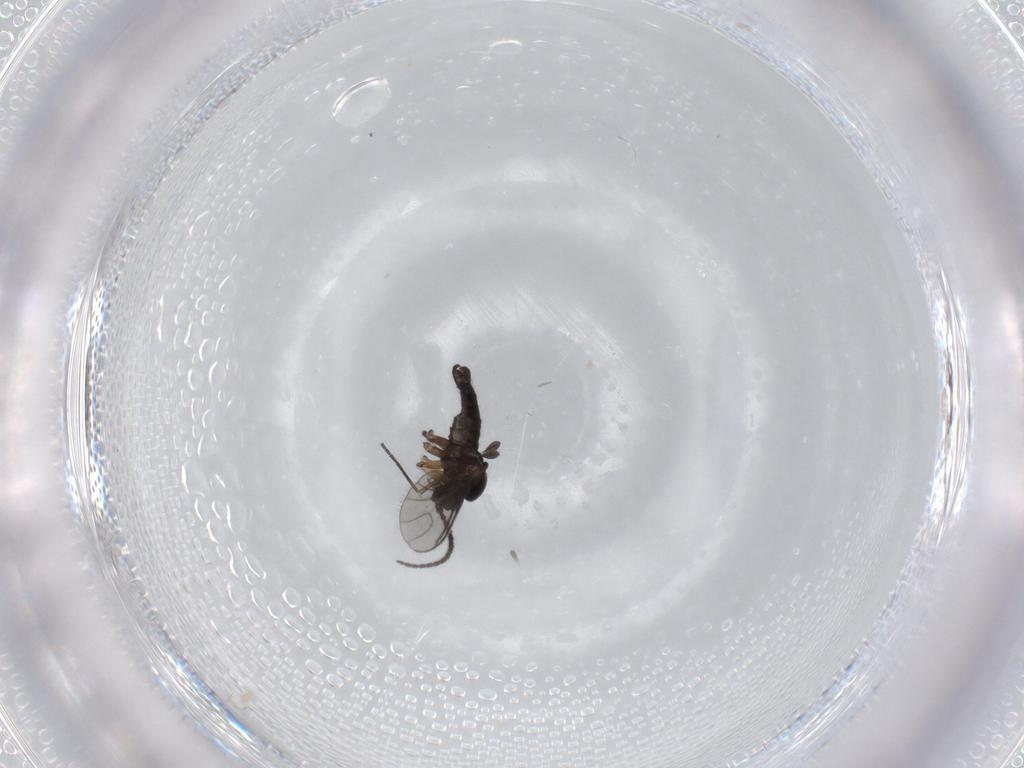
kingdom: Animalia
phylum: Arthropoda
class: Insecta
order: Diptera
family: Sciaridae
